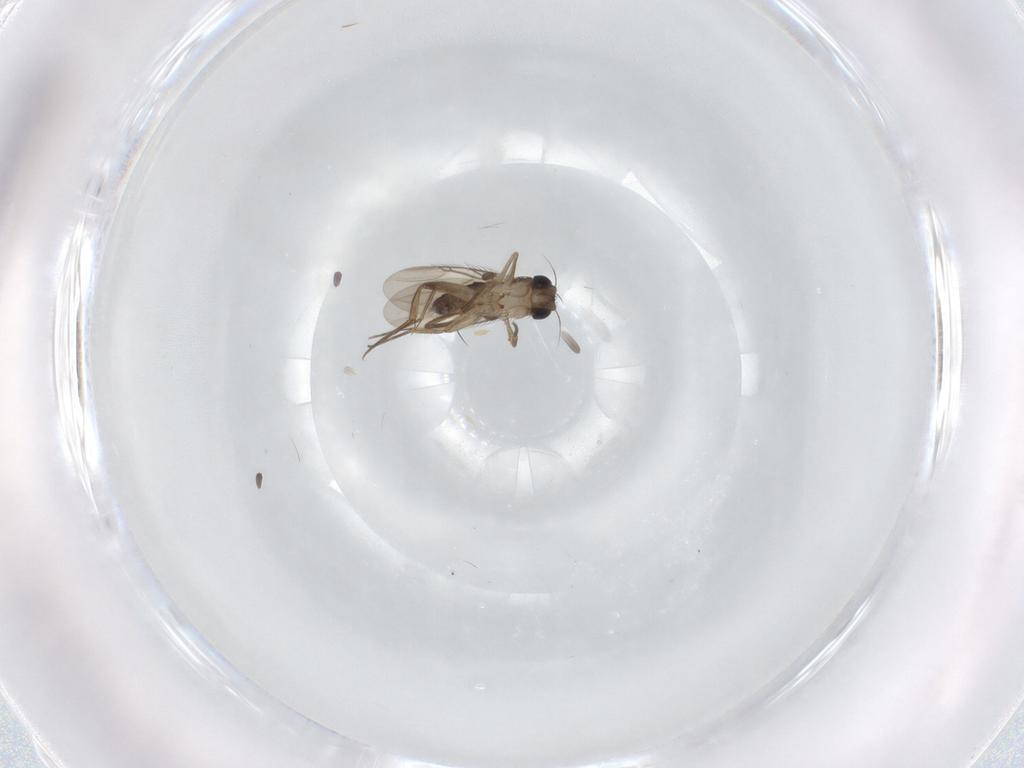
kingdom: Animalia
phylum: Arthropoda
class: Insecta
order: Diptera
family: Phoridae
